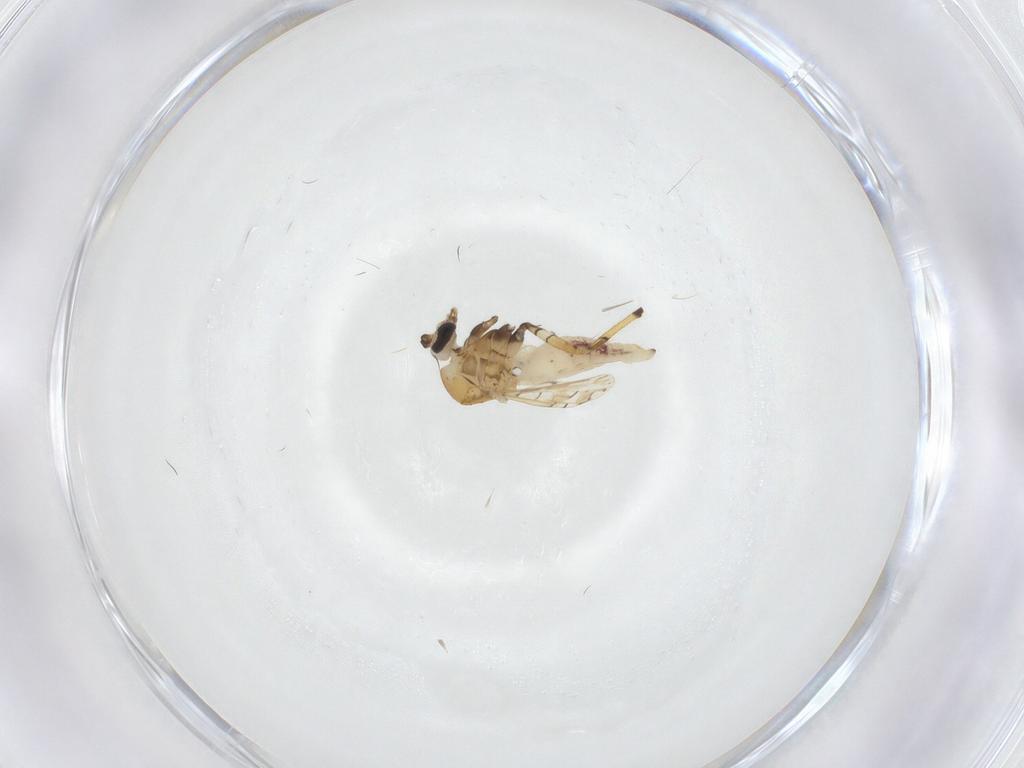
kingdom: Animalia
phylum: Arthropoda
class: Insecta
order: Diptera
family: Ceratopogonidae
